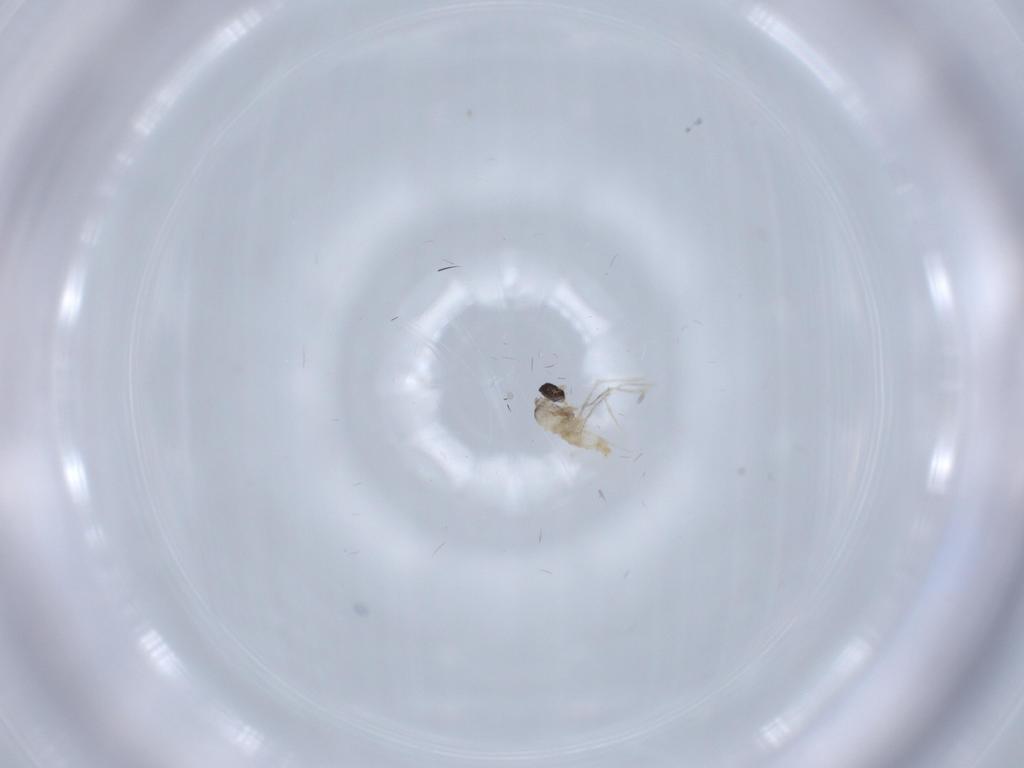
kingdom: Animalia
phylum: Arthropoda
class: Insecta
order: Diptera
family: Cecidomyiidae
